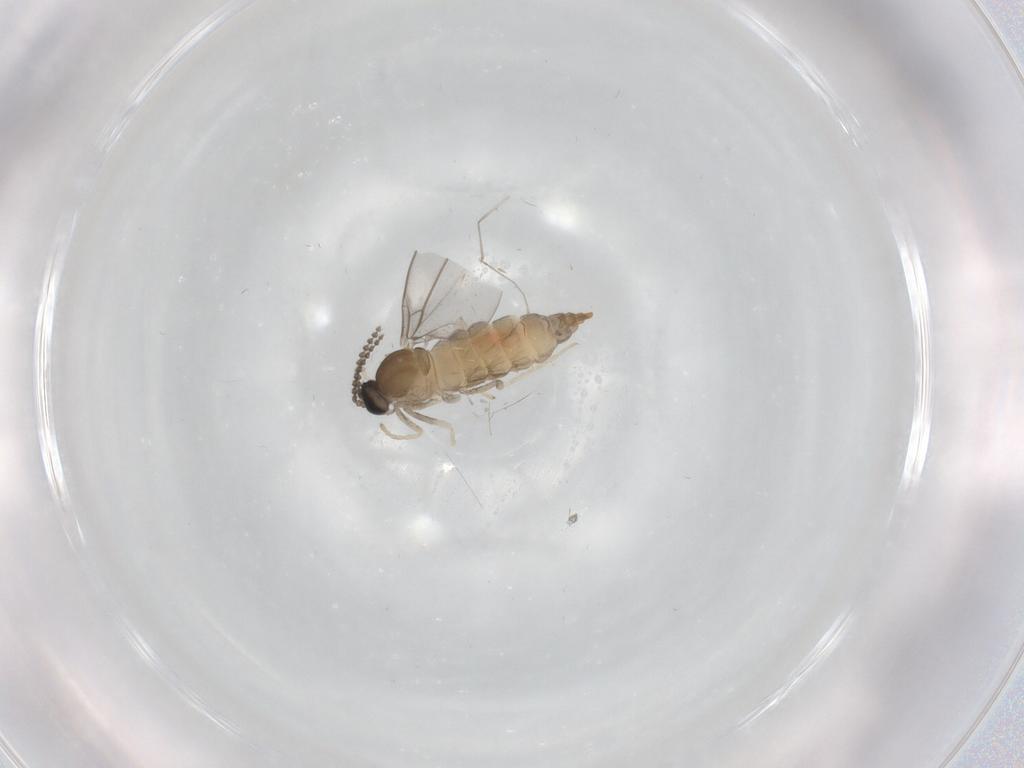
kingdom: Animalia
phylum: Arthropoda
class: Insecta
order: Diptera
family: Cecidomyiidae
